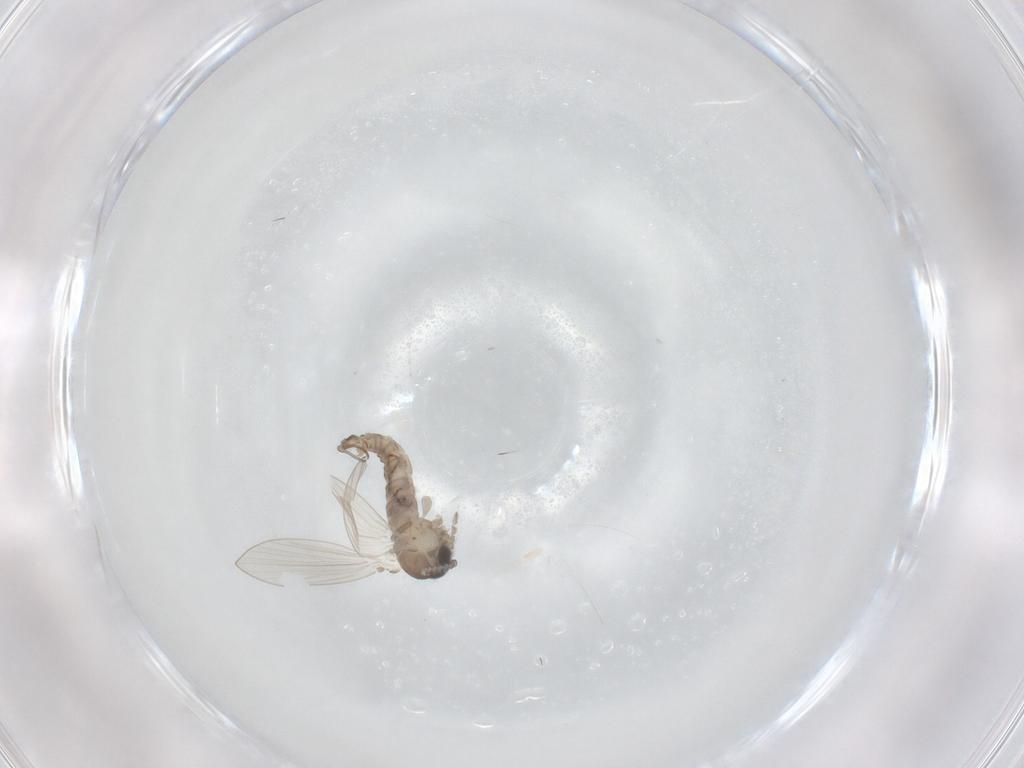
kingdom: Animalia
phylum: Arthropoda
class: Insecta
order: Diptera
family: Psychodidae
